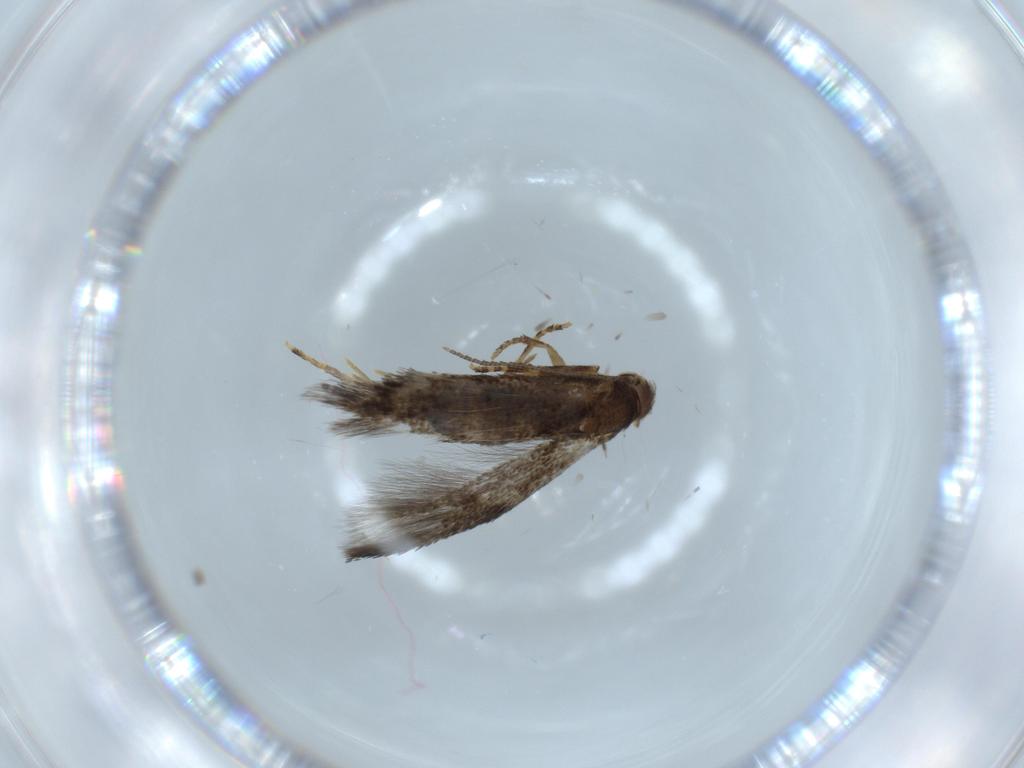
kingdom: Animalia
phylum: Arthropoda
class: Insecta
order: Lepidoptera
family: Gelechiidae
